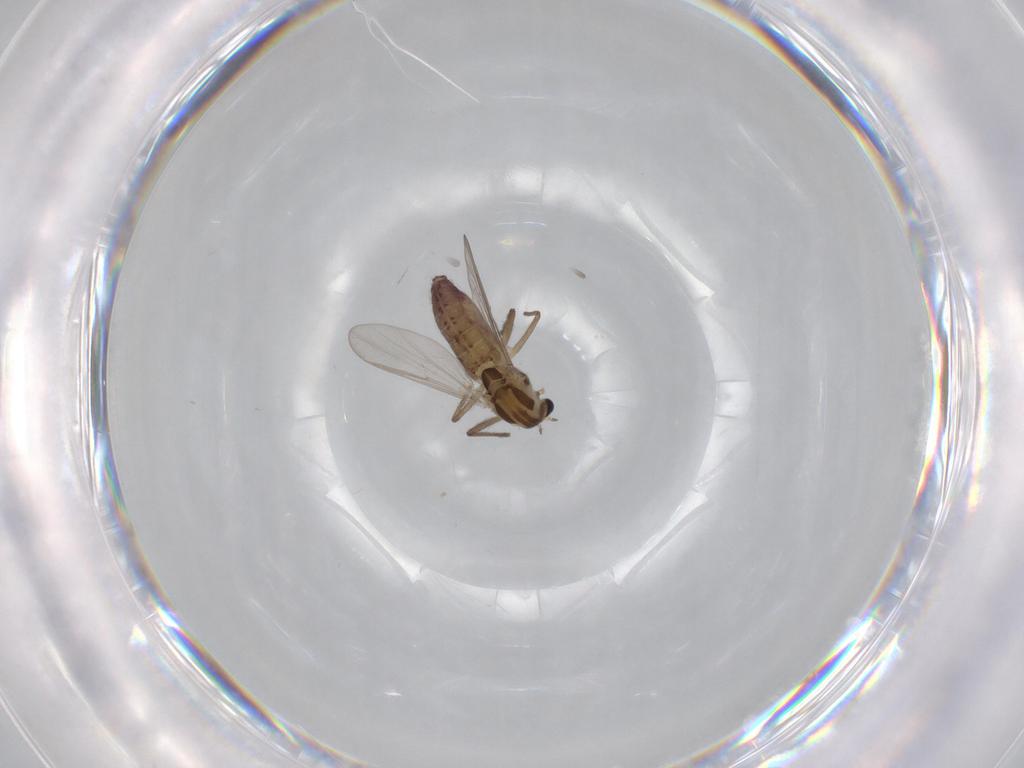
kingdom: Animalia
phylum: Arthropoda
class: Insecta
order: Diptera
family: Chironomidae
